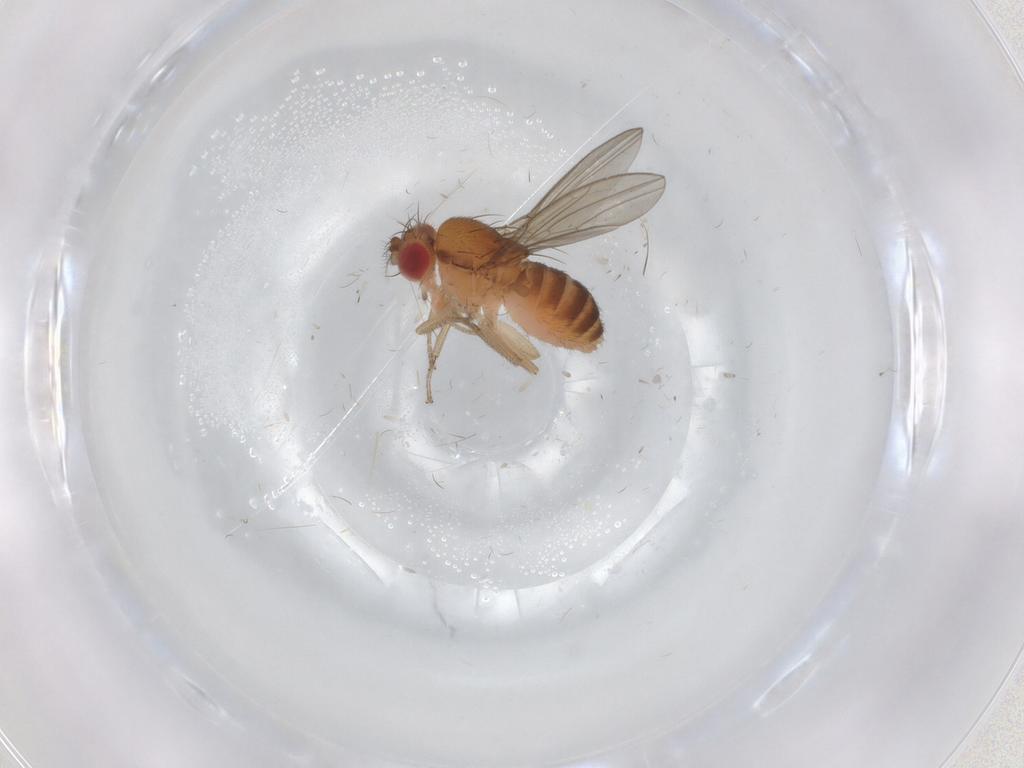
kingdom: Animalia
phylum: Arthropoda
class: Insecta
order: Diptera
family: Drosophilidae
